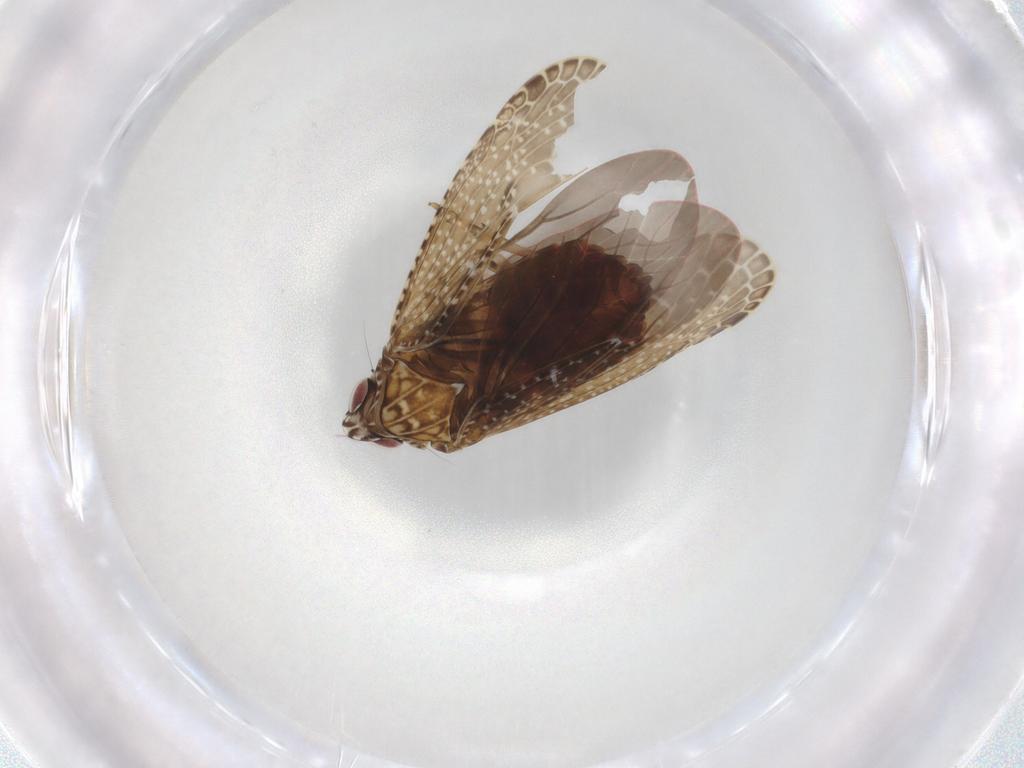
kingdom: Animalia
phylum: Arthropoda
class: Insecta
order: Hemiptera
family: Achilidae
